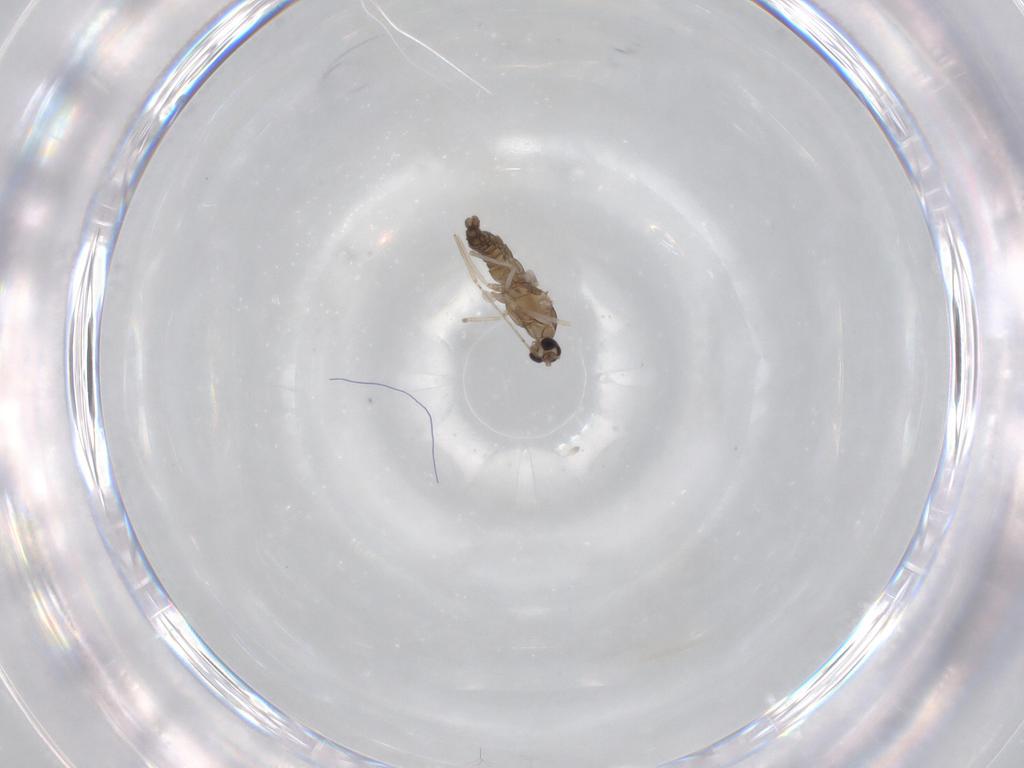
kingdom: Animalia
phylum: Arthropoda
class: Insecta
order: Diptera
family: Cecidomyiidae
